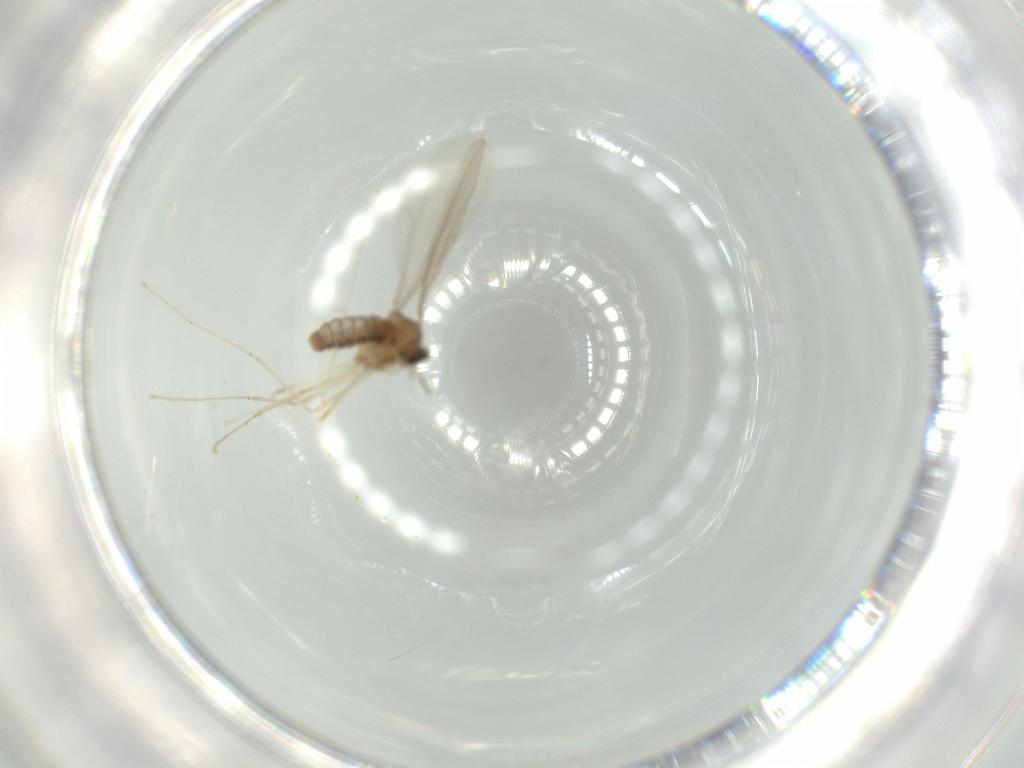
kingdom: Animalia
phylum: Arthropoda
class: Insecta
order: Diptera
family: Cecidomyiidae
